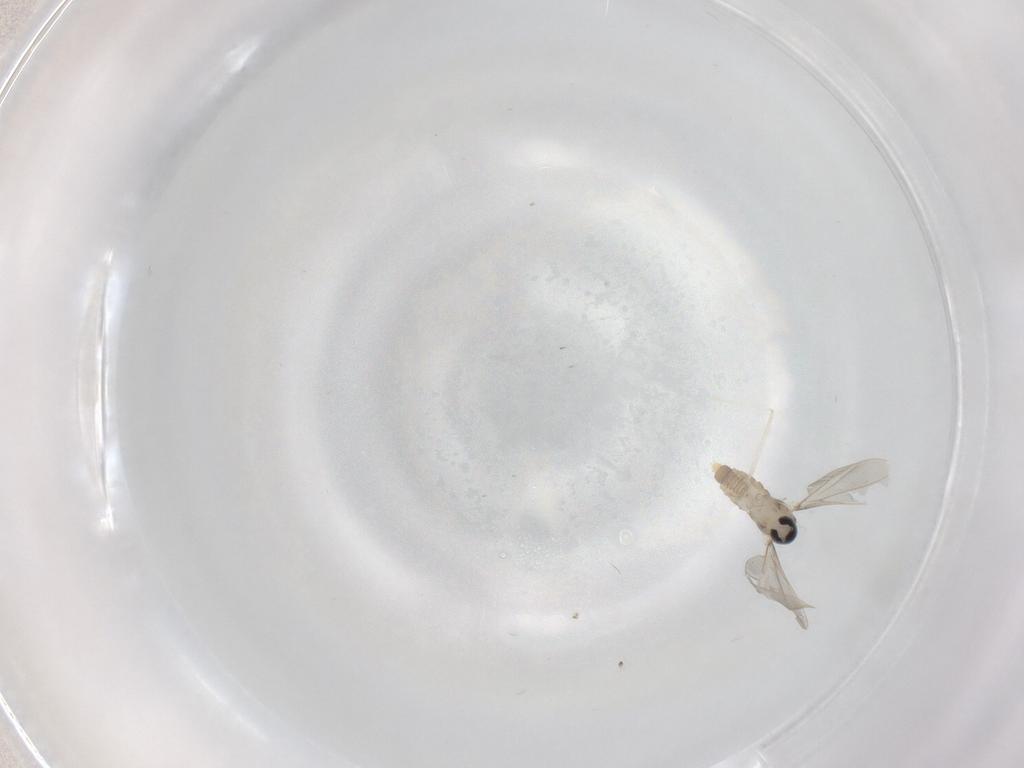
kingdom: Animalia
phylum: Arthropoda
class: Insecta
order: Diptera
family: Cecidomyiidae
